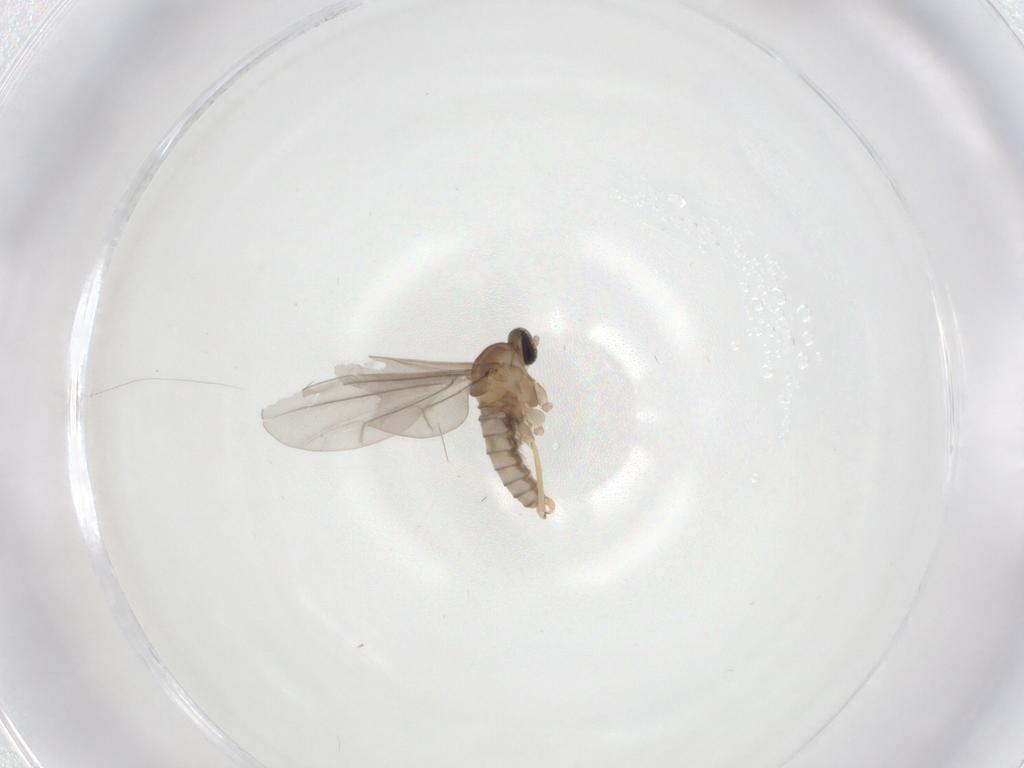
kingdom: Animalia
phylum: Arthropoda
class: Insecta
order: Diptera
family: Cecidomyiidae
